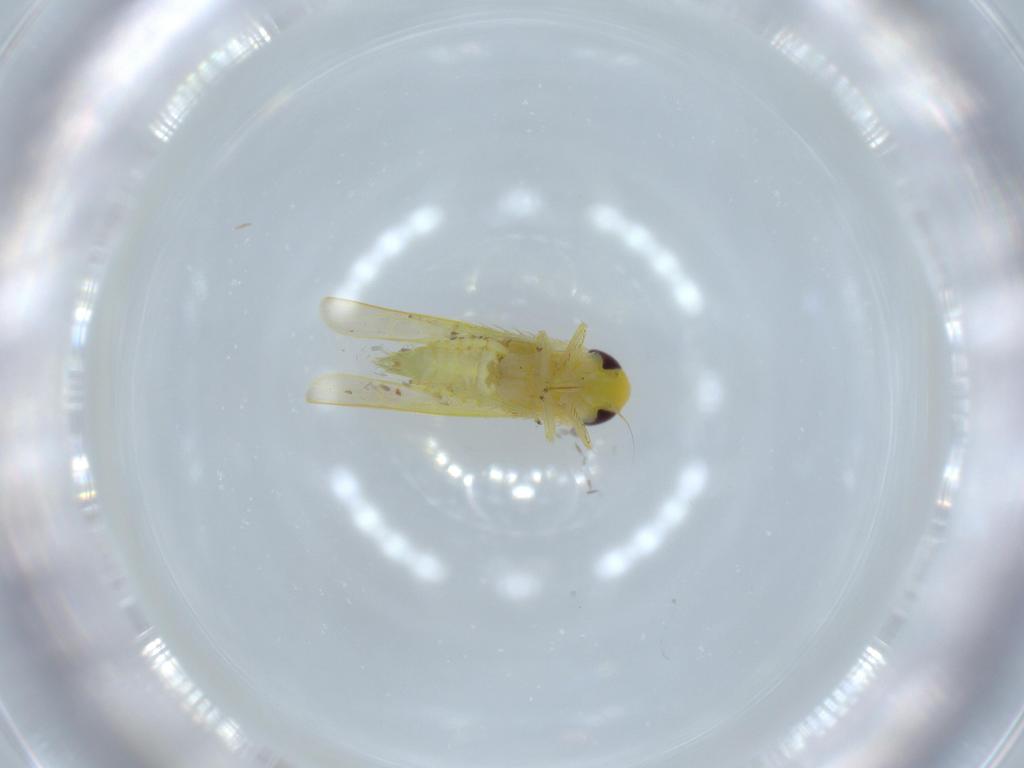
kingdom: Animalia
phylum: Arthropoda
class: Insecta
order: Hemiptera
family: Cicadellidae
